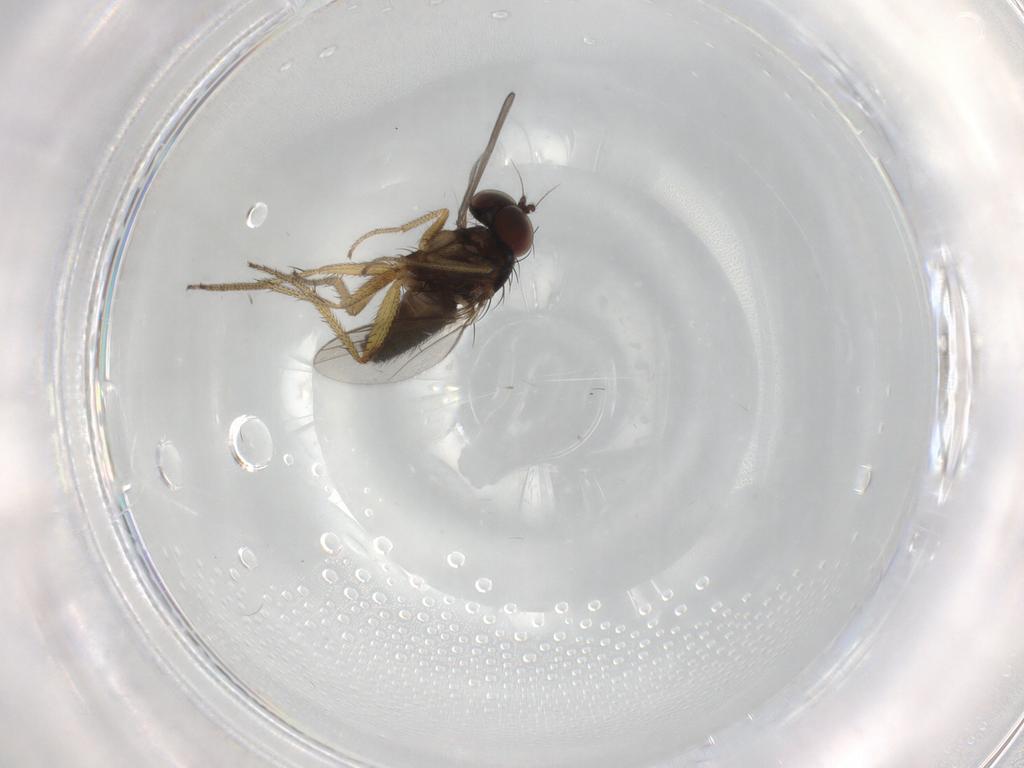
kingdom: Animalia
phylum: Arthropoda
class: Insecta
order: Diptera
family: Dolichopodidae
